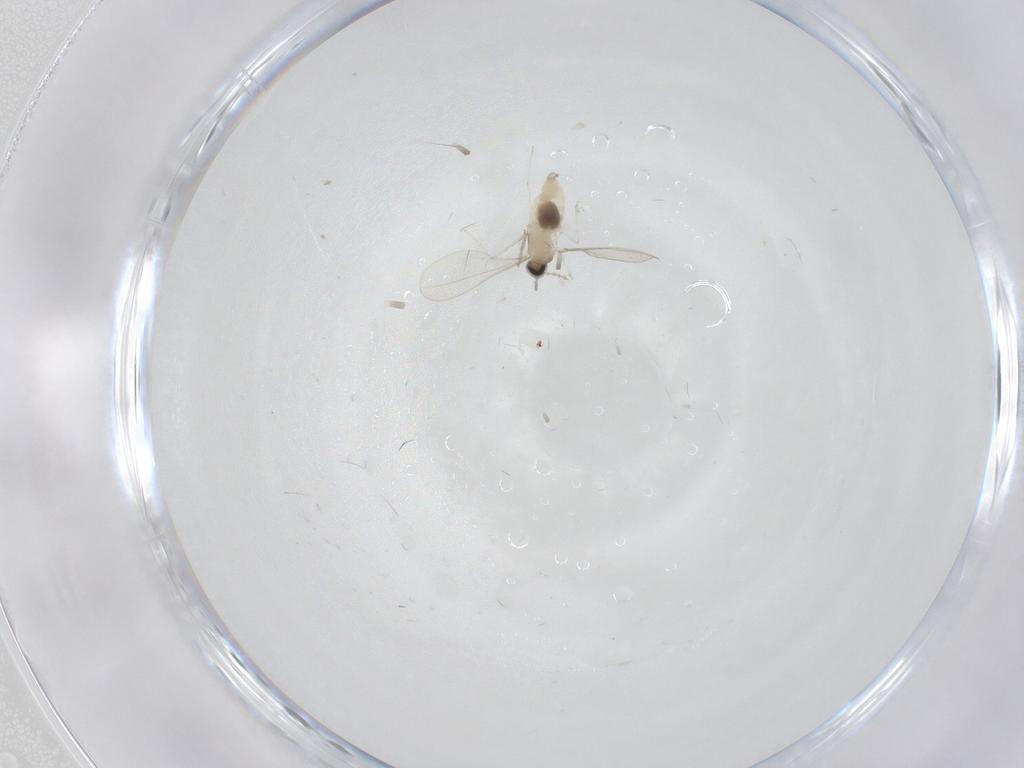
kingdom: Animalia
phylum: Arthropoda
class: Insecta
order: Diptera
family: Cecidomyiidae
